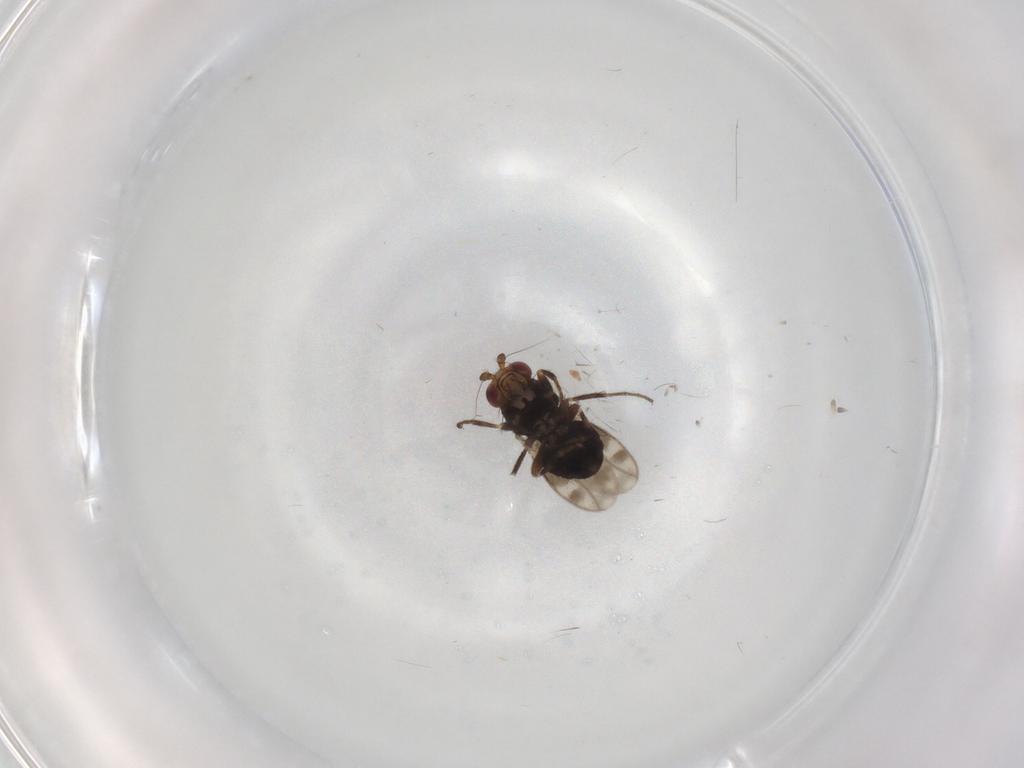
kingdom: Animalia
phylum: Arthropoda
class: Insecta
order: Diptera
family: Sphaeroceridae
